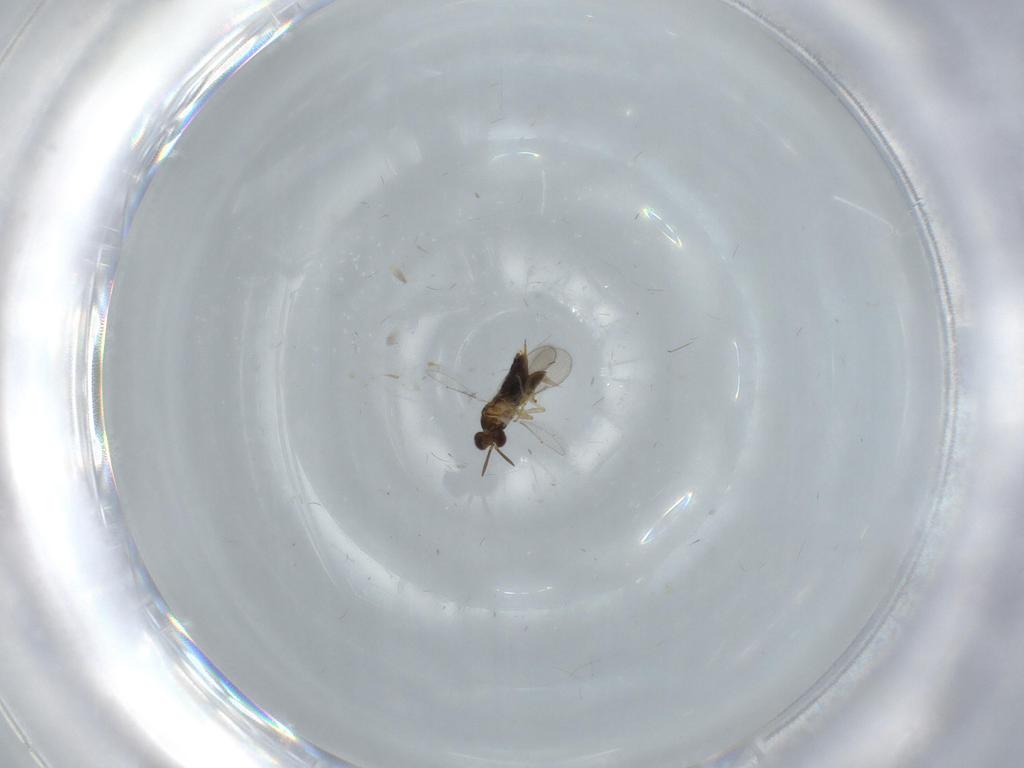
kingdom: Animalia
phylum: Arthropoda
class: Insecta
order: Hymenoptera
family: Aphelinidae
